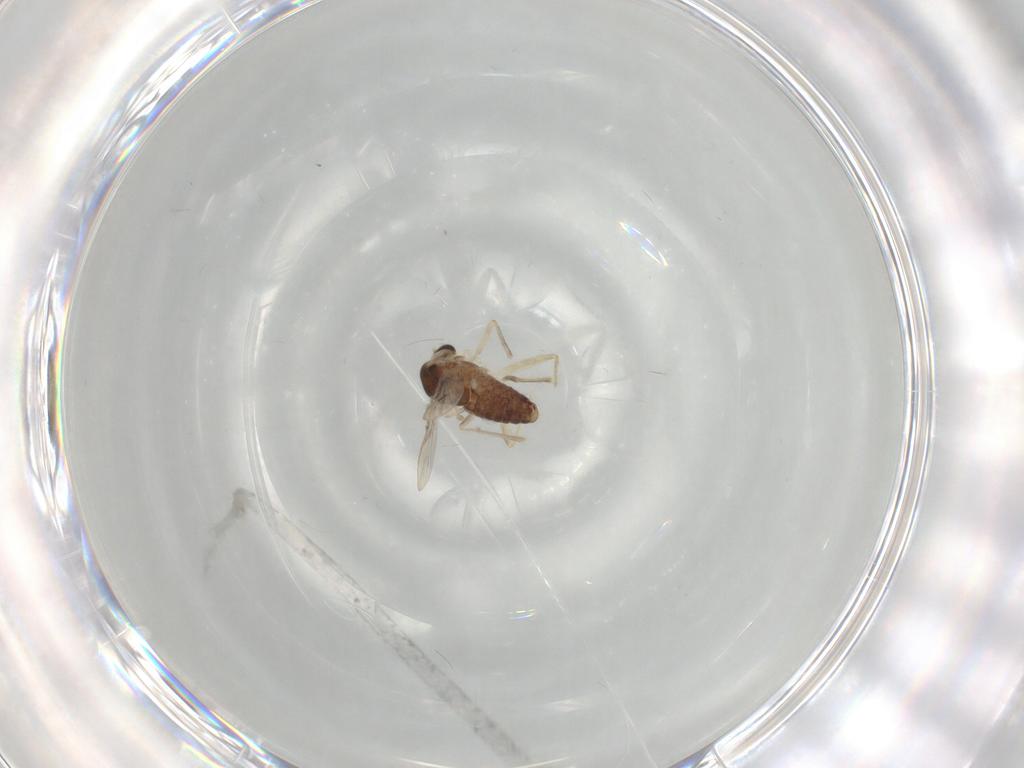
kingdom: Animalia
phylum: Arthropoda
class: Insecta
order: Diptera
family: Chironomidae
